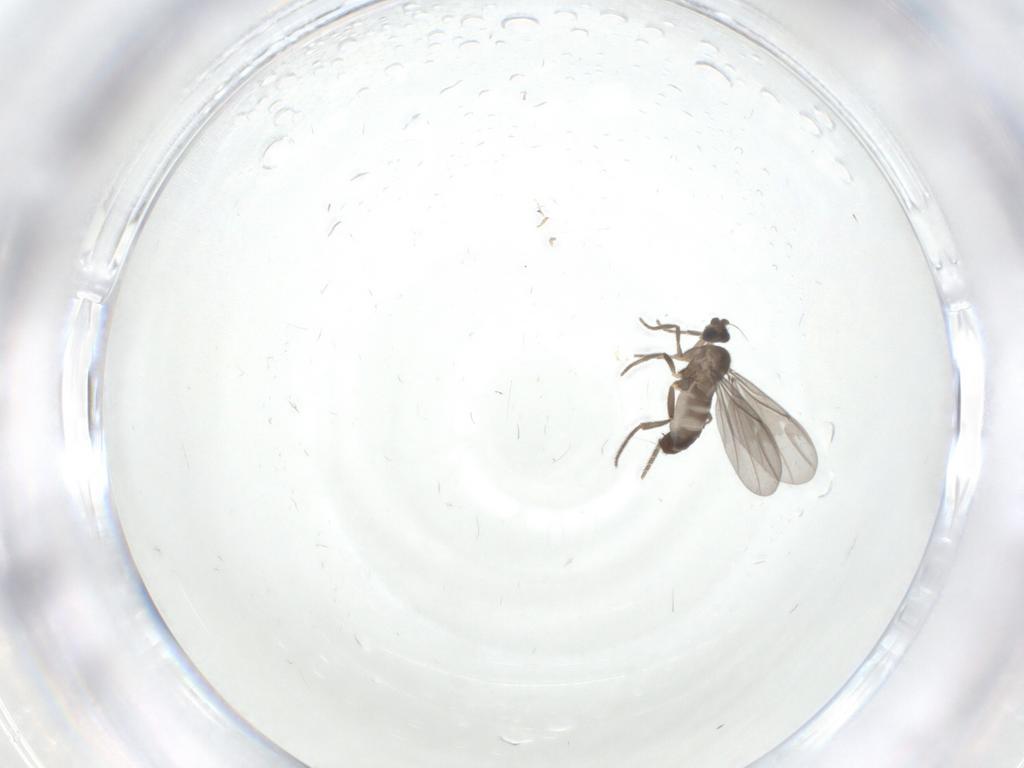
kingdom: Animalia
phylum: Arthropoda
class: Insecta
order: Diptera
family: Phoridae
